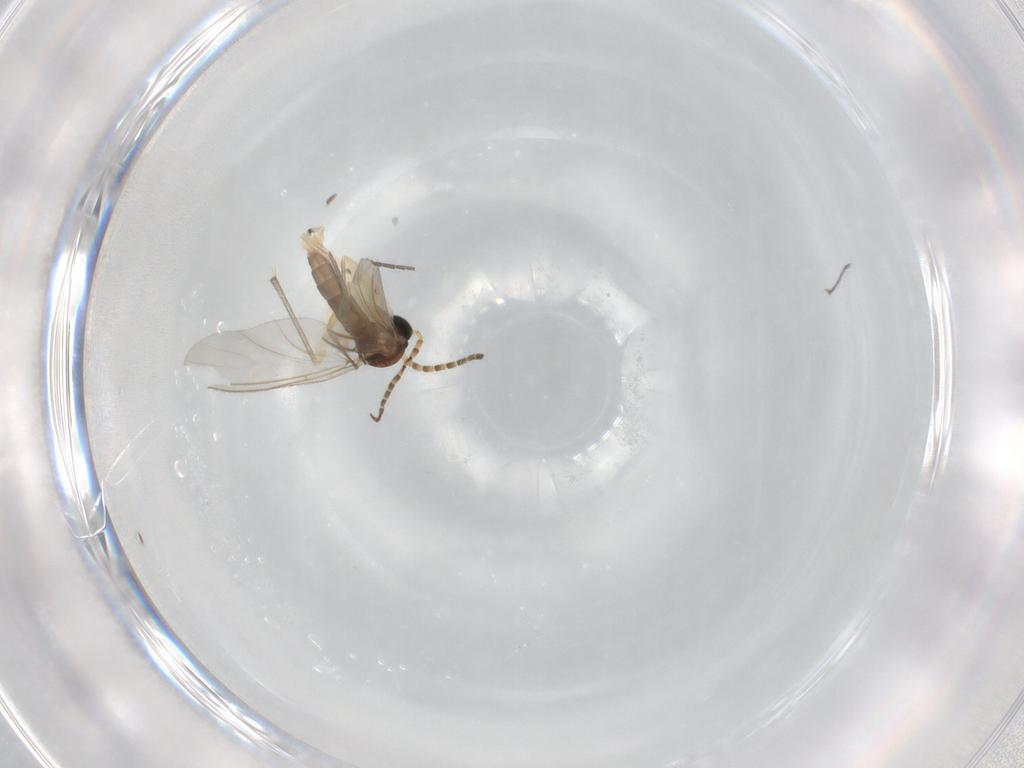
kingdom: Animalia
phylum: Arthropoda
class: Insecta
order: Diptera
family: Sciaridae
